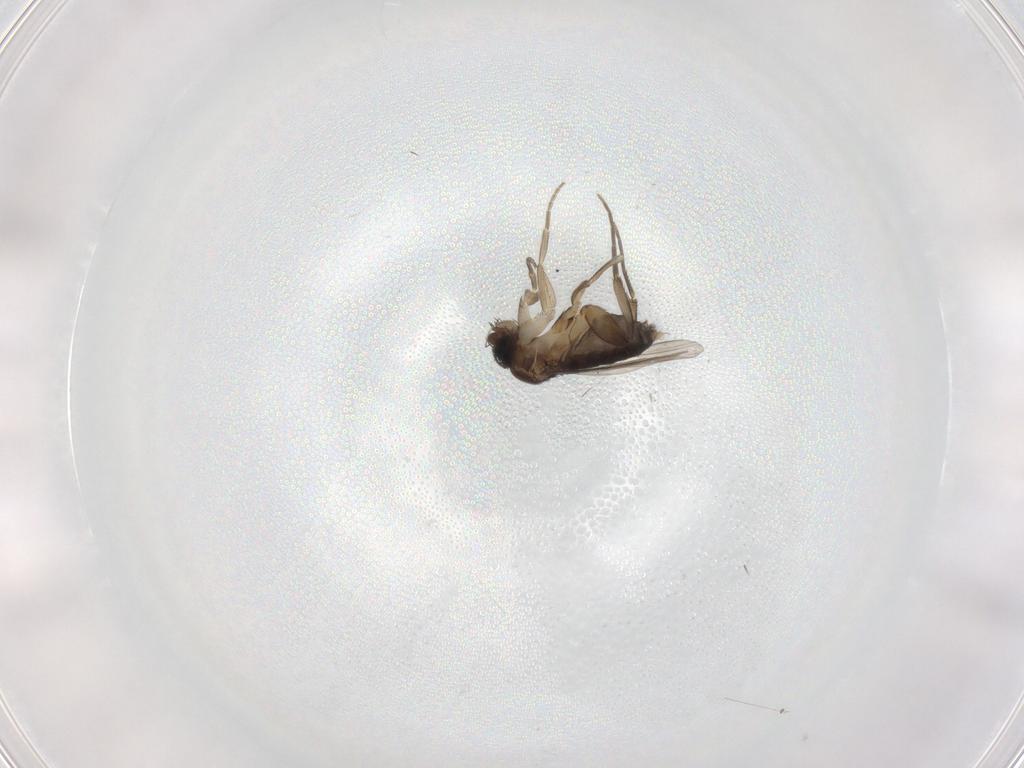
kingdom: Animalia
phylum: Arthropoda
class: Insecta
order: Diptera
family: Phoridae
